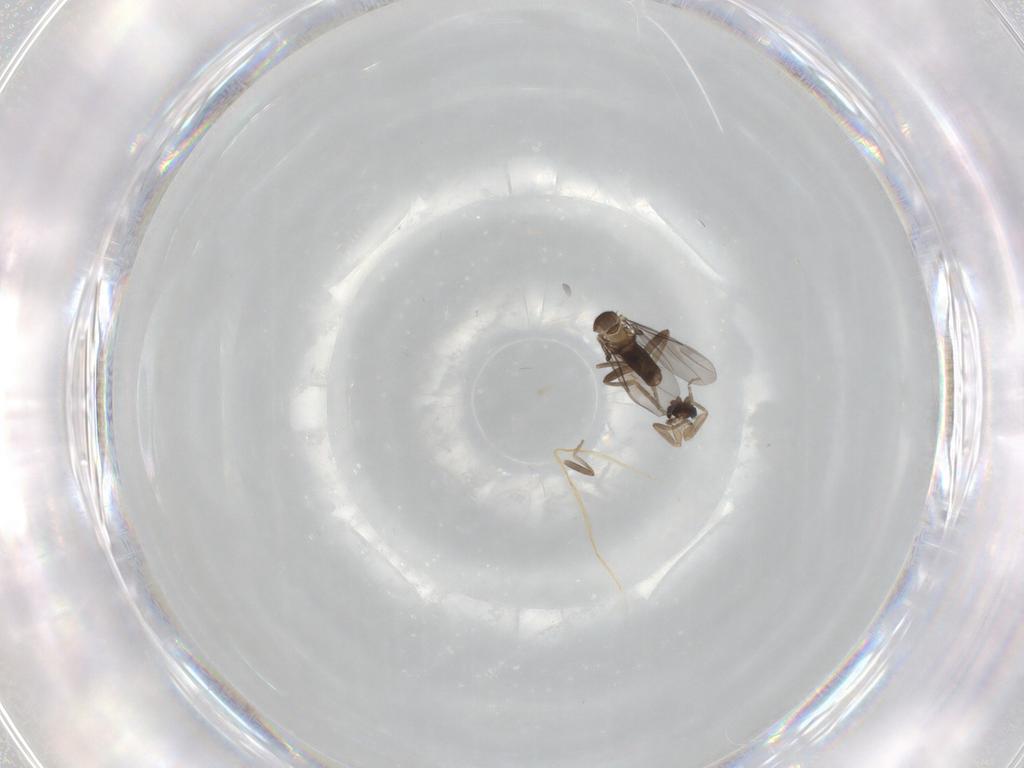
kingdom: Animalia
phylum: Arthropoda
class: Insecta
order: Diptera
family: Cecidomyiidae
